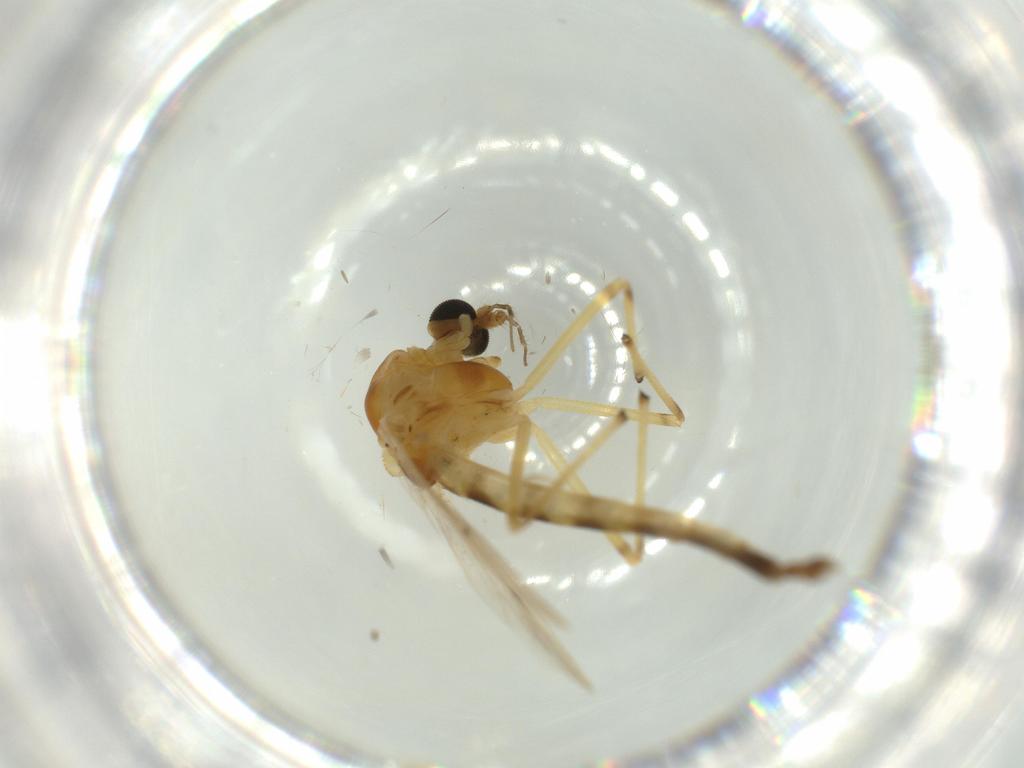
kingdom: Animalia
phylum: Arthropoda
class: Insecta
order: Diptera
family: Chironomidae
